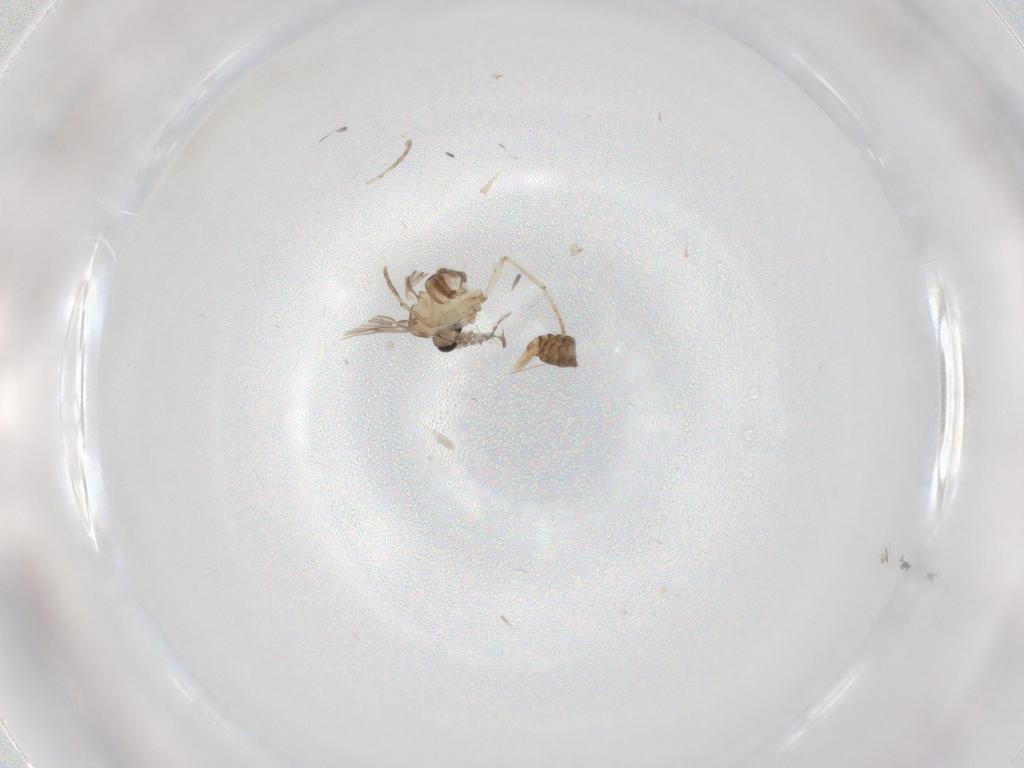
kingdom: Animalia
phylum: Arthropoda
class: Insecta
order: Diptera
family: Psychodidae
